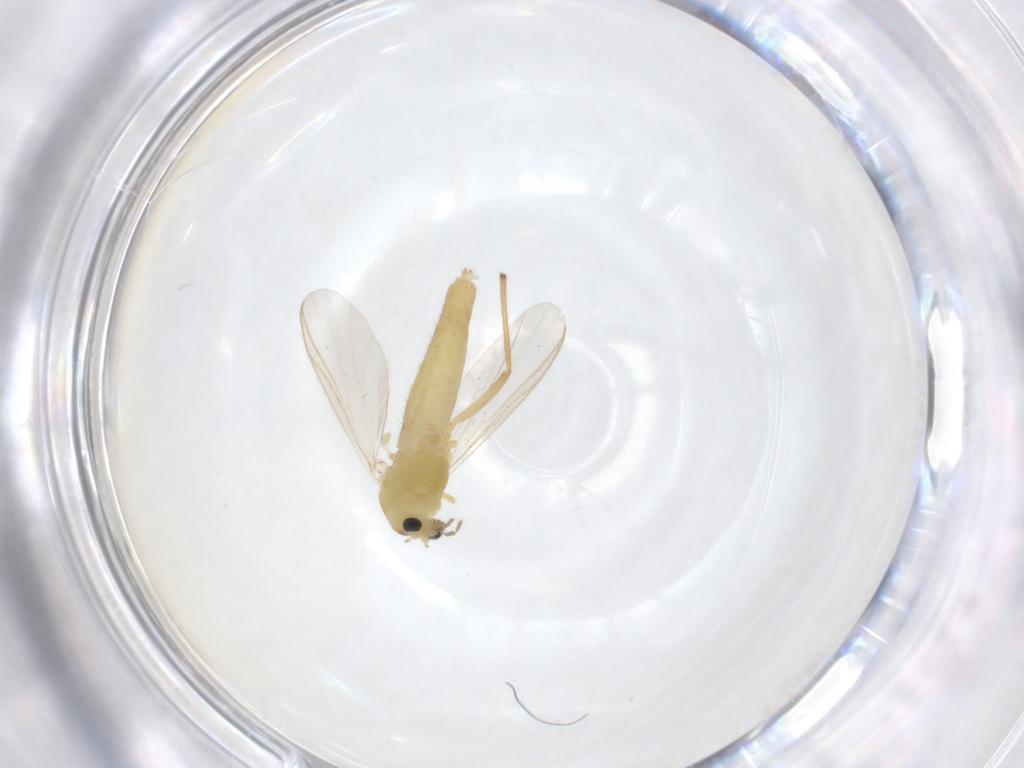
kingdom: Animalia
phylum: Arthropoda
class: Insecta
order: Diptera
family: Chironomidae
